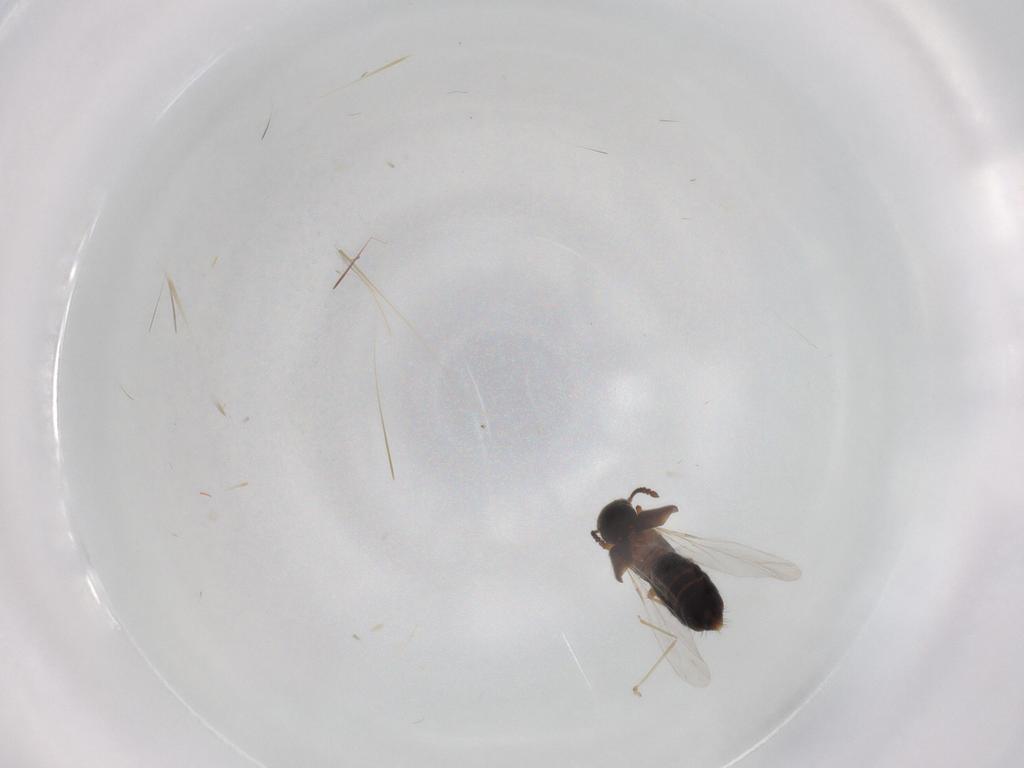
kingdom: Animalia
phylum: Arthropoda
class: Insecta
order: Coleoptera
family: Staphylinidae
